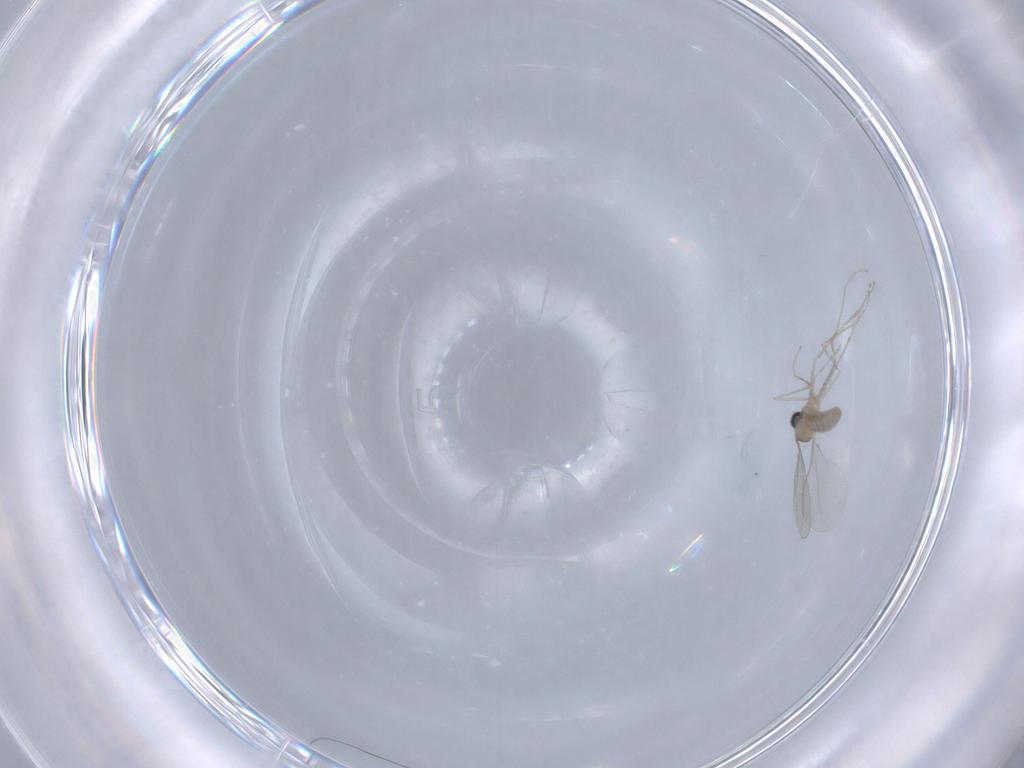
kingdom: Animalia
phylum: Arthropoda
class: Insecta
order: Diptera
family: Cecidomyiidae
